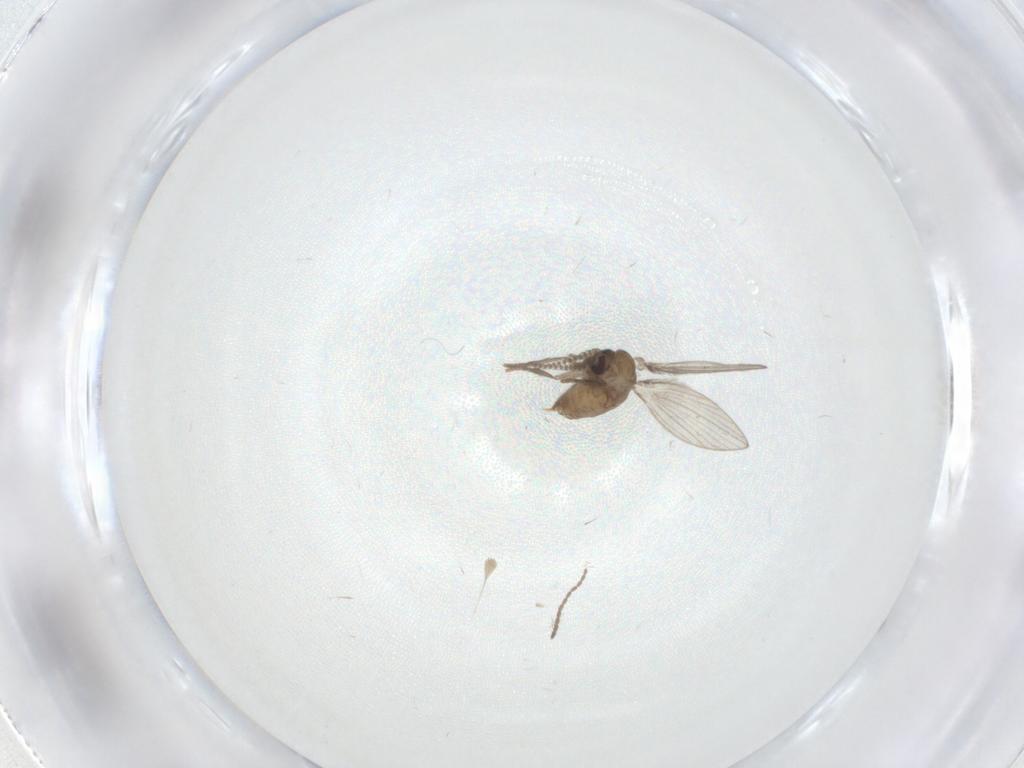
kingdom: Animalia
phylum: Arthropoda
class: Insecta
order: Diptera
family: Psychodidae
